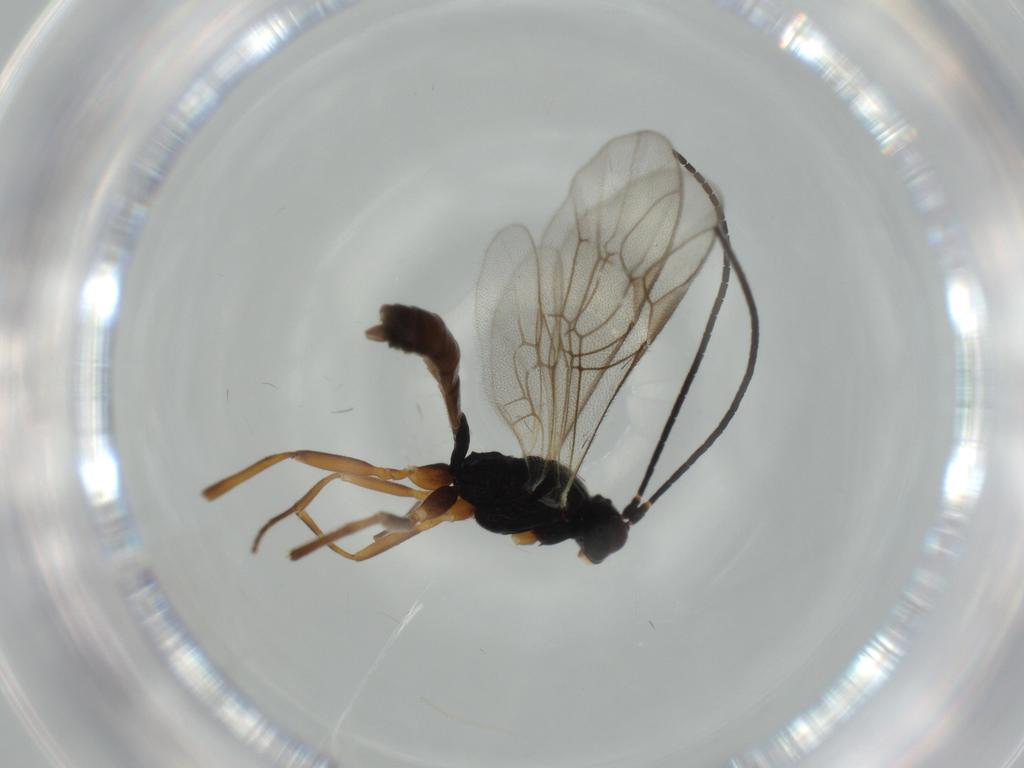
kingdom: Animalia
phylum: Arthropoda
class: Insecta
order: Hymenoptera
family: Ichneumonidae
